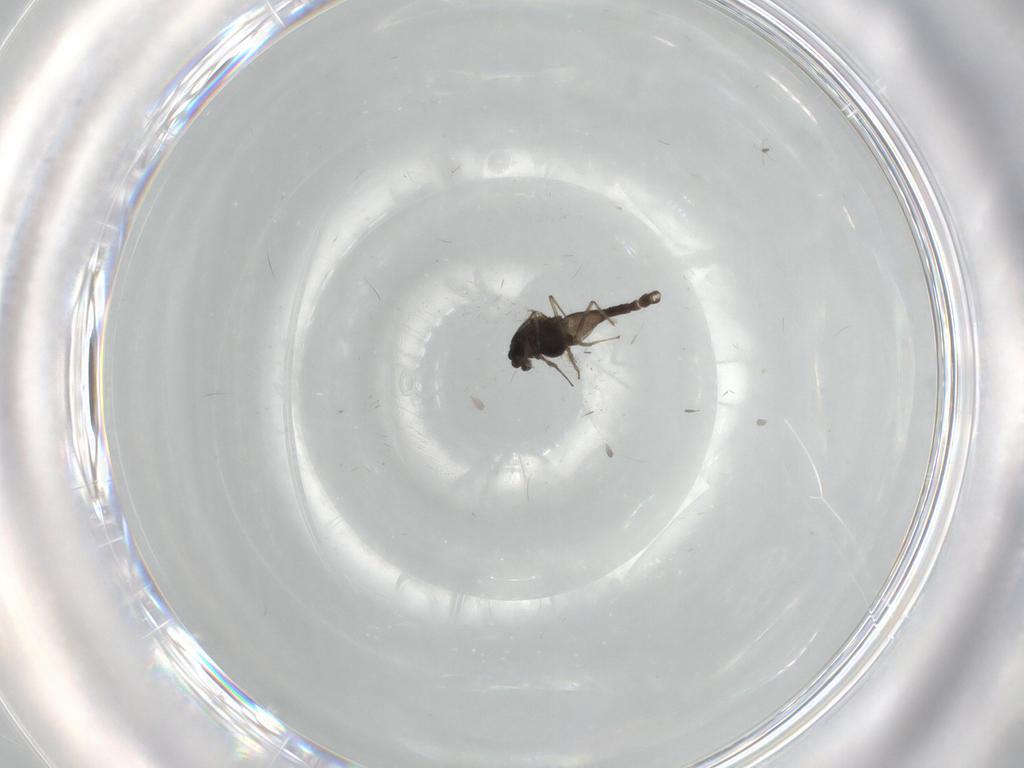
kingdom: Animalia
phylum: Arthropoda
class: Insecta
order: Diptera
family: Chironomidae
